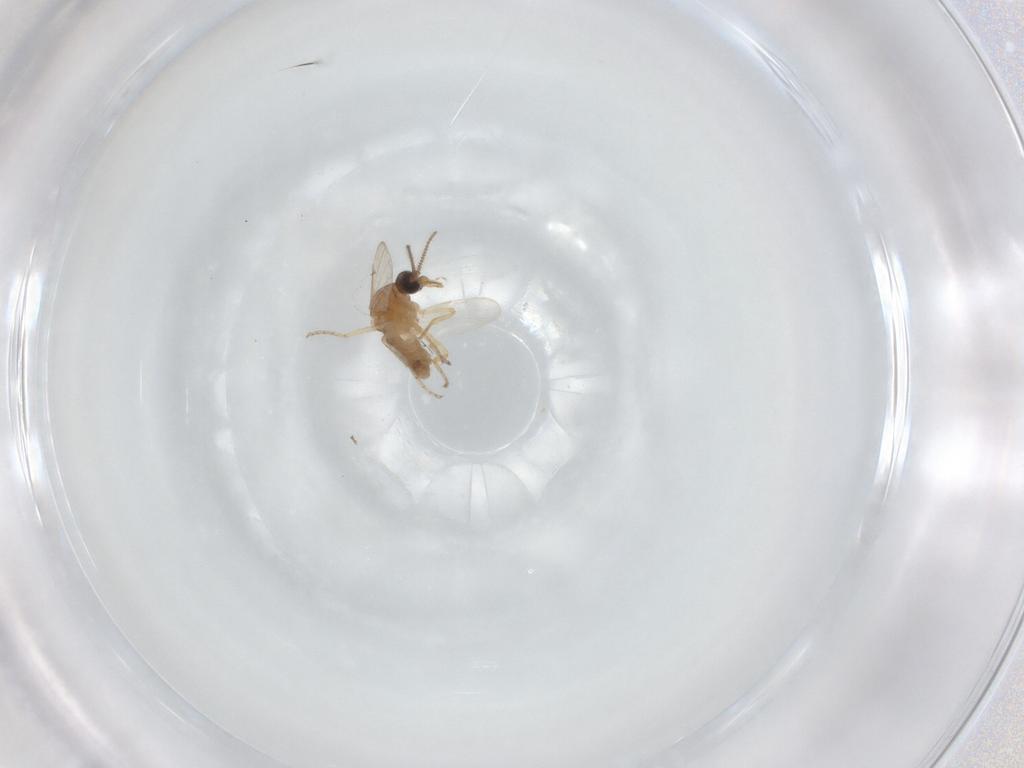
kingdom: Animalia
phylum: Arthropoda
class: Insecta
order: Diptera
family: Ceratopogonidae
